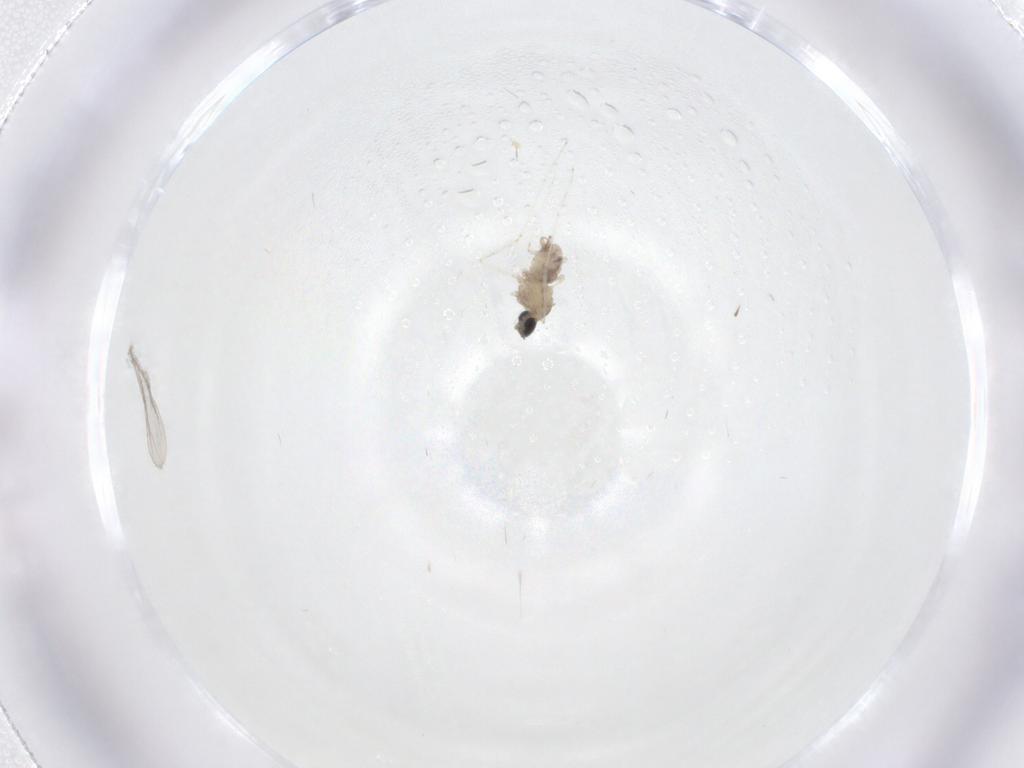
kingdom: Animalia
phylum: Arthropoda
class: Insecta
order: Diptera
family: Cecidomyiidae
